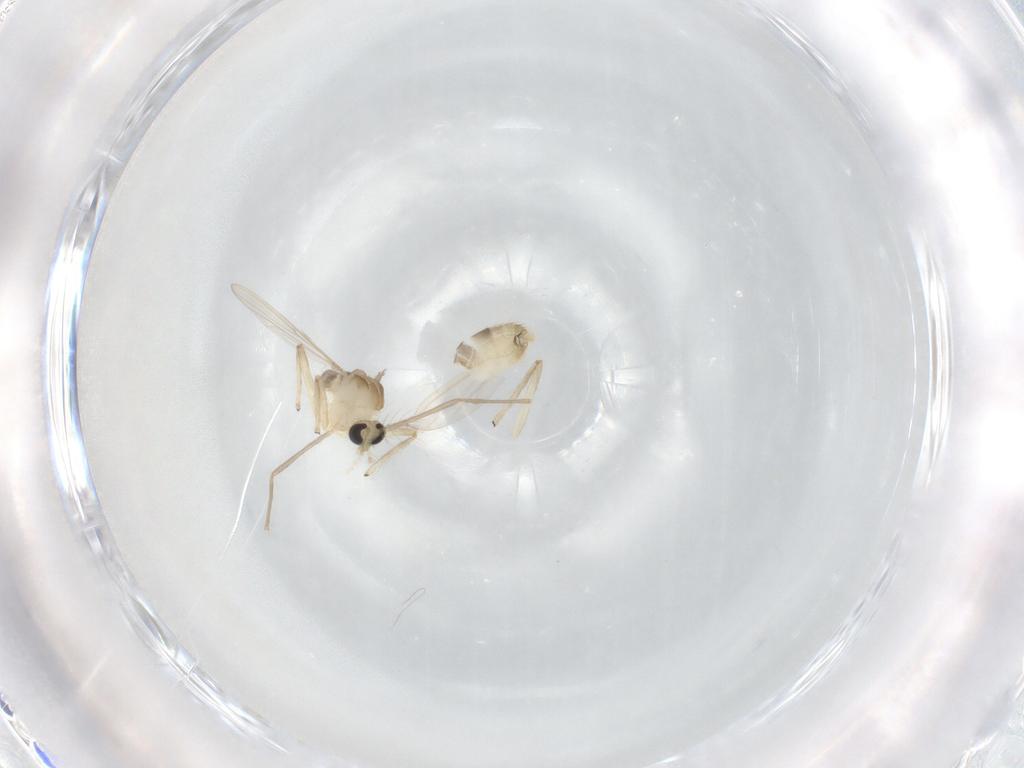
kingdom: Animalia
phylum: Arthropoda
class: Insecta
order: Diptera
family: Chironomidae
